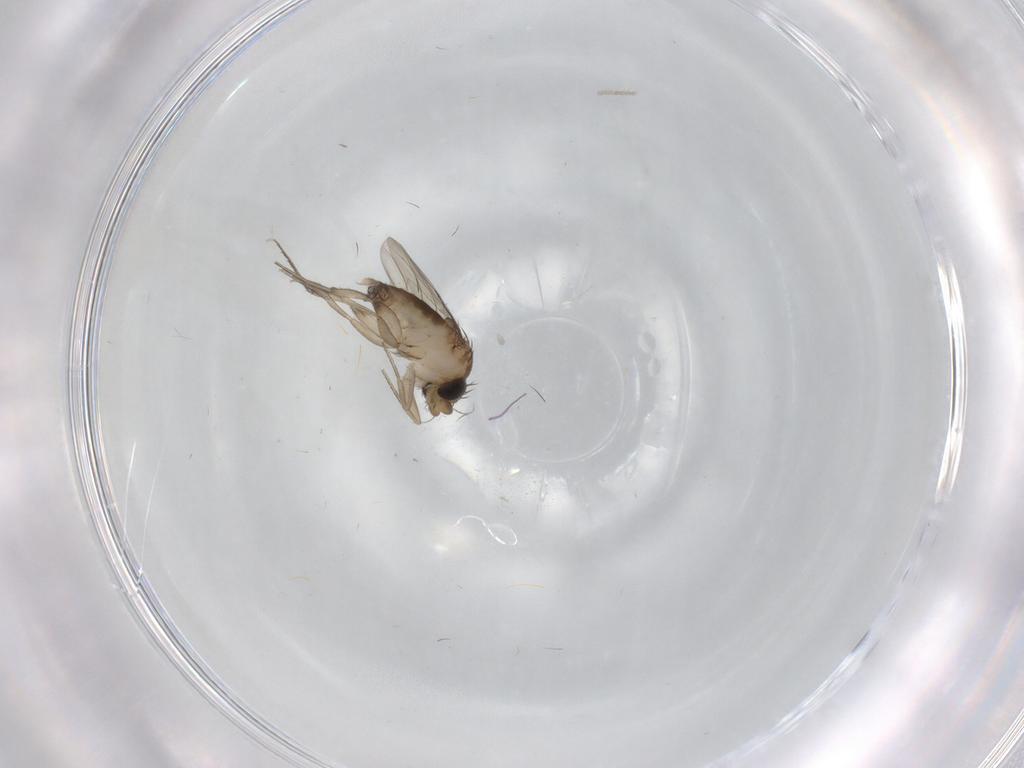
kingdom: Animalia
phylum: Arthropoda
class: Insecta
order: Diptera
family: Phoridae
